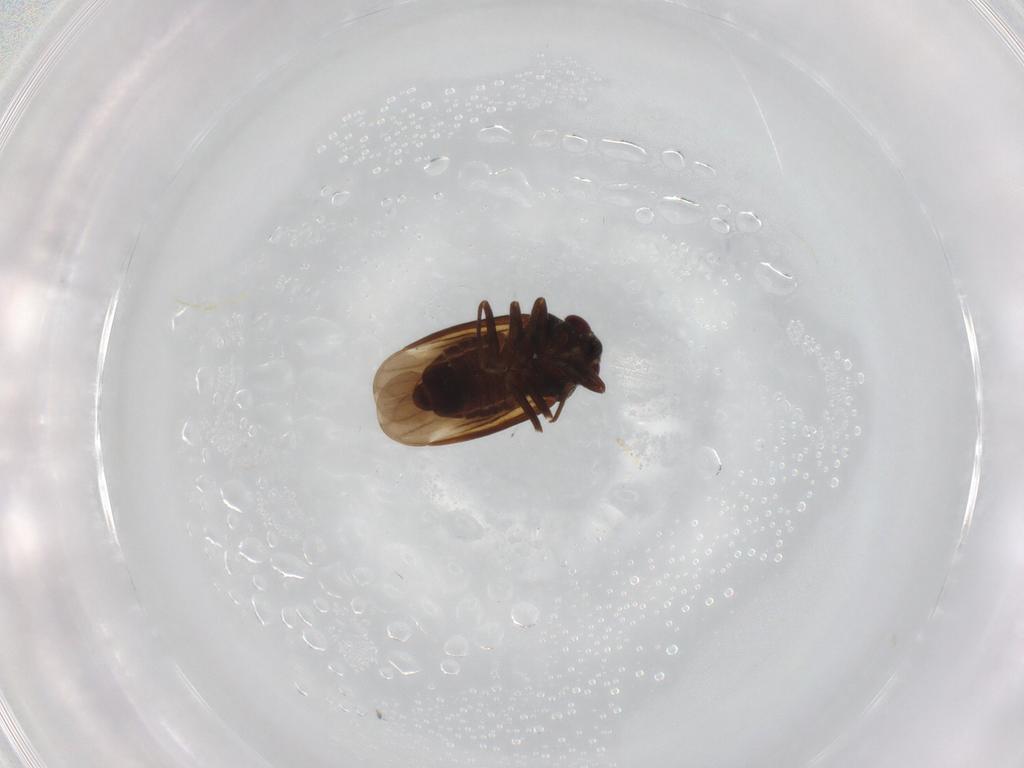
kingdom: Animalia
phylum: Arthropoda
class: Insecta
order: Hemiptera
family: Schizopteridae
